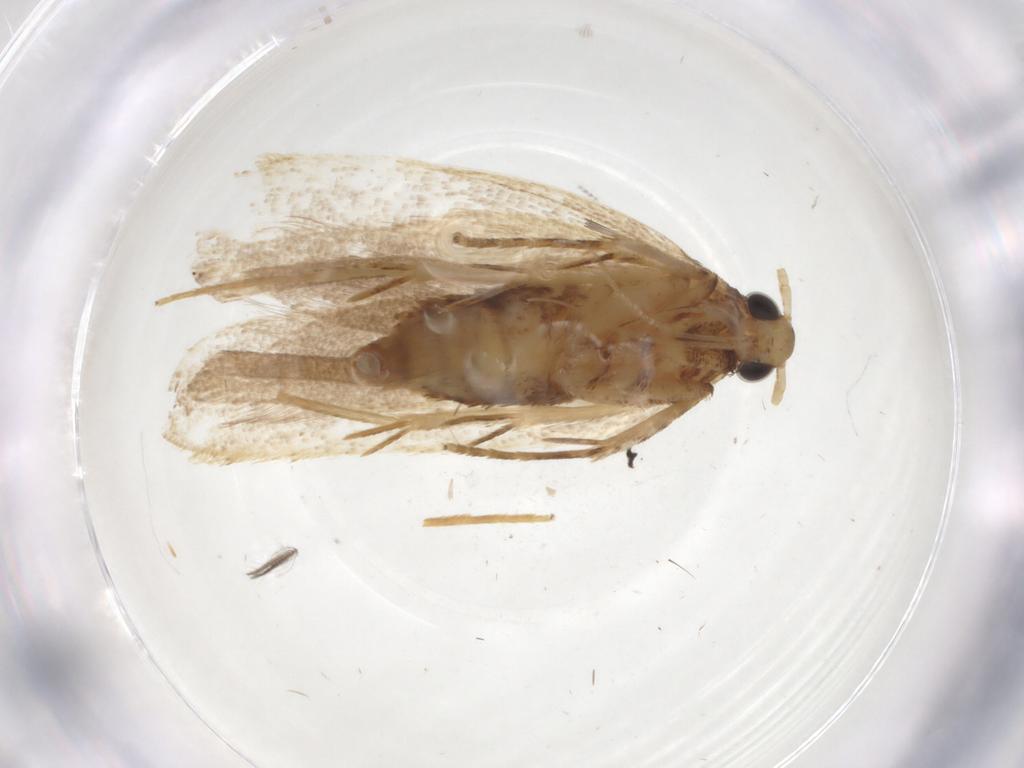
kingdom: Animalia
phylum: Arthropoda
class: Insecta
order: Lepidoptera
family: Lecithoceridae
